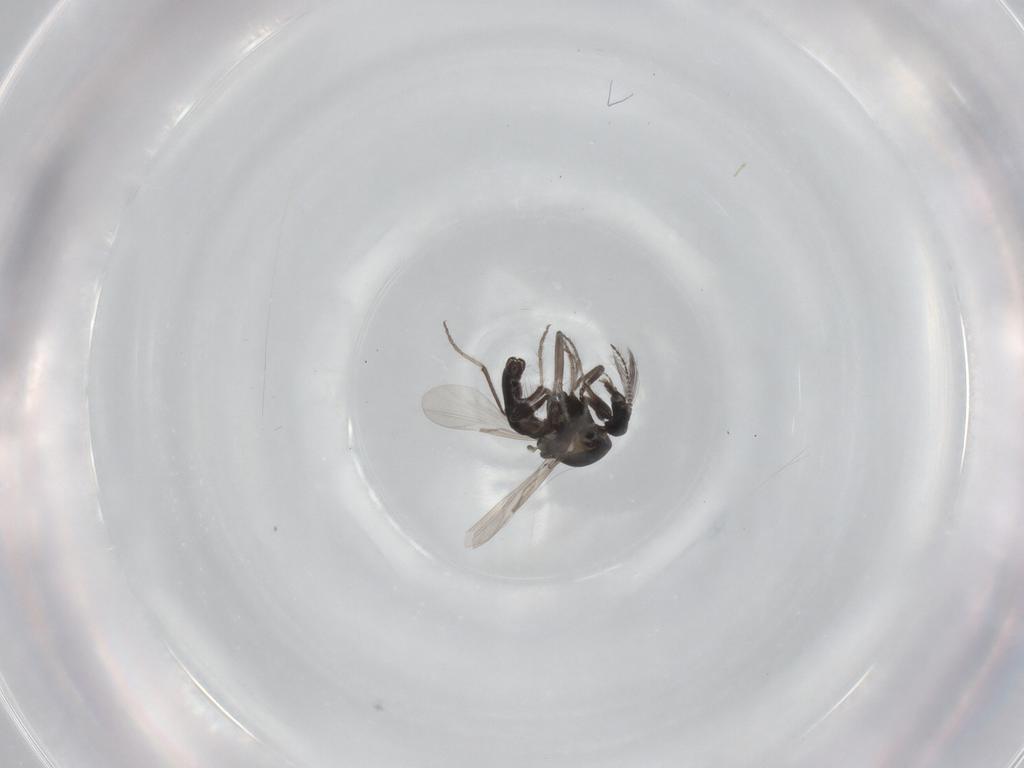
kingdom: Animalia
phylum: Arthropoda
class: Insecta
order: Diptera
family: Ceratopogonidae
